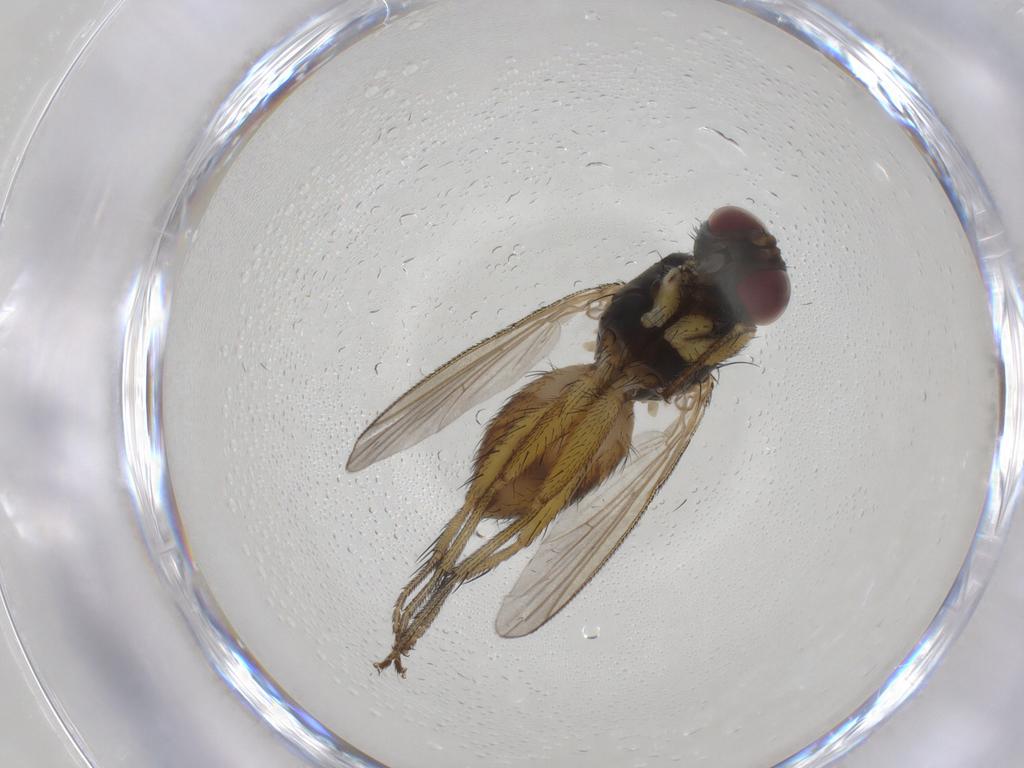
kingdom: Animalia
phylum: Arthropoda
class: Insecta
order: Diptera
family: Muscidae
